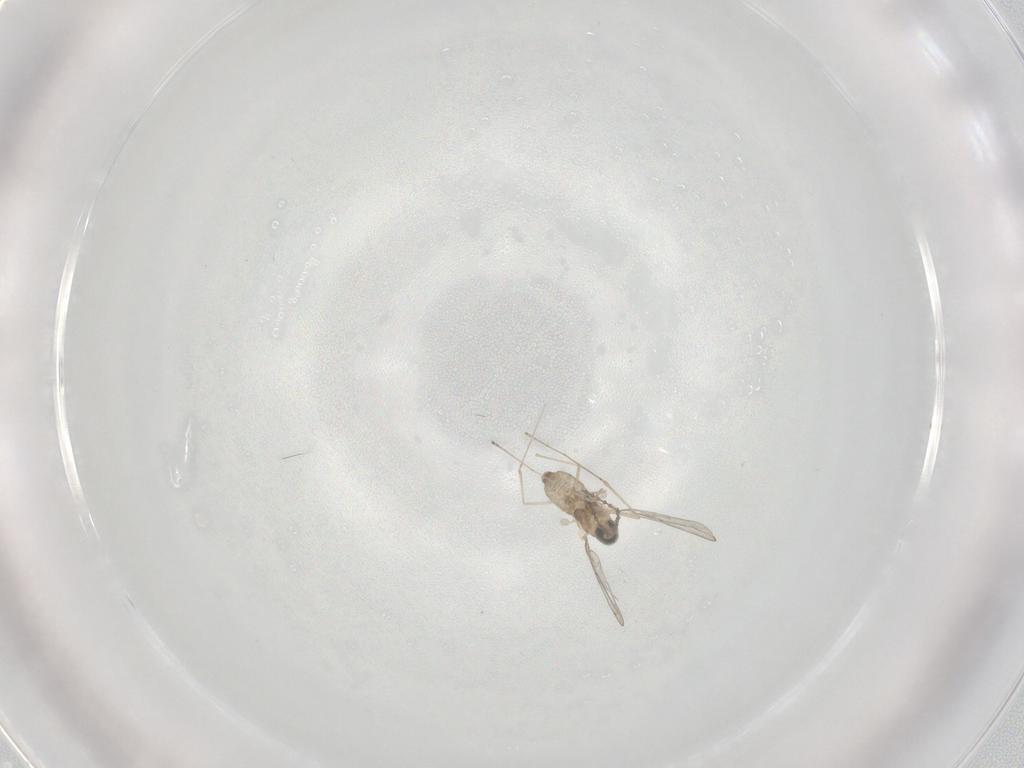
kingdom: Animalia
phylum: Arthropoda
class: Insecta
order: Diptera
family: Cecidomyiidae
